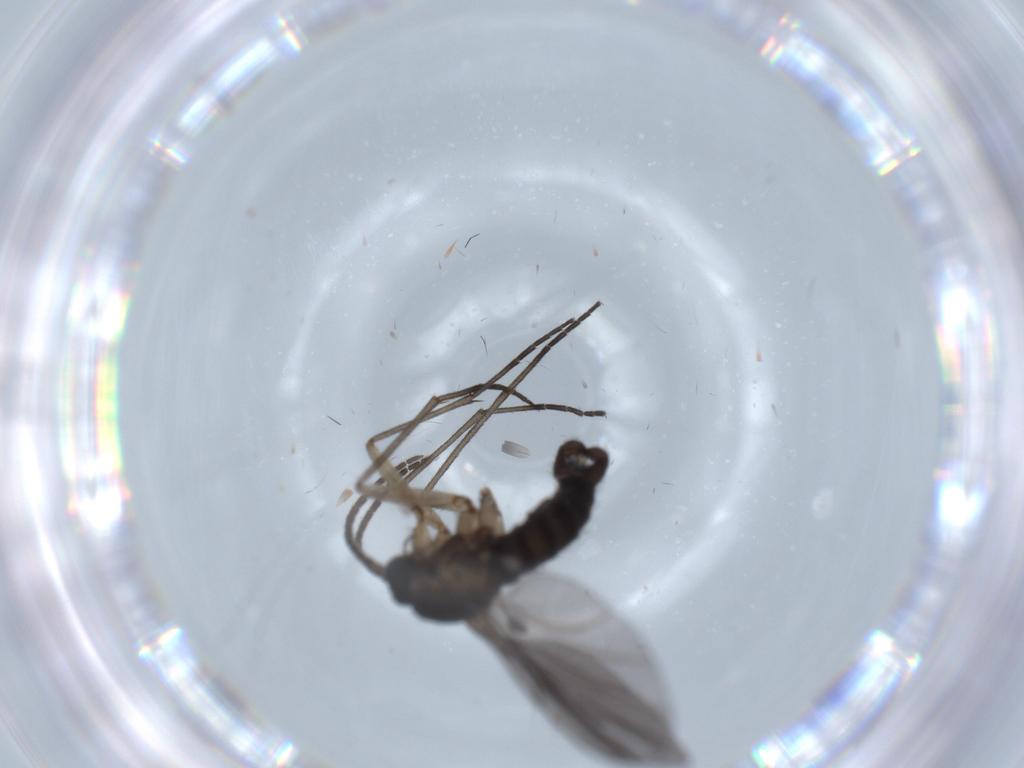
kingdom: Animalia
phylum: Arthropoda
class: Insecta
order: Diptera
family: Sciaridae
